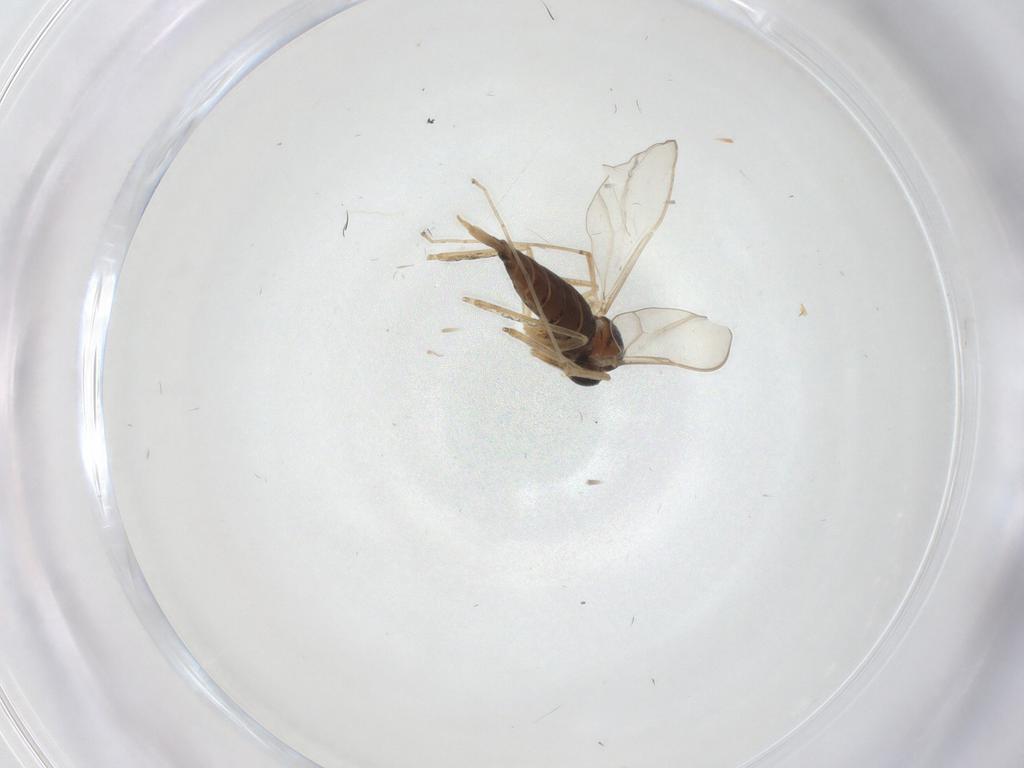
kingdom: Animalia
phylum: Arthropoda
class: Insecta
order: Diptera
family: Chironomidae
